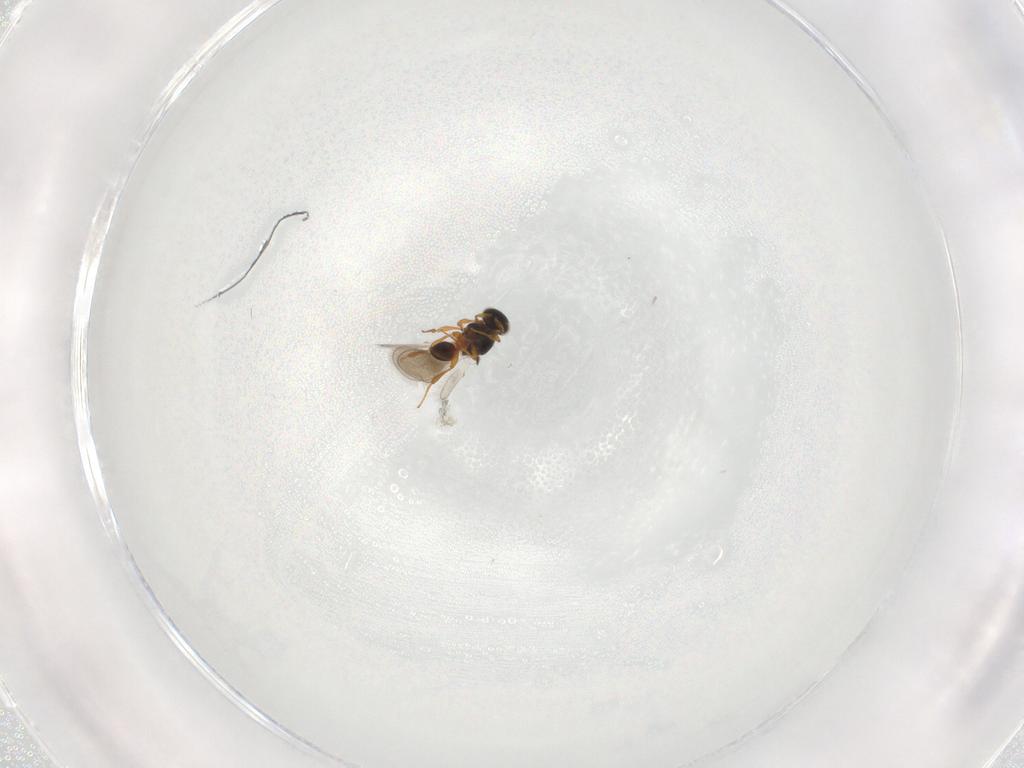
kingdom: Animalia
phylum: Arthropoda
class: Insecta
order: Hymenoptera
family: Platygastridae
